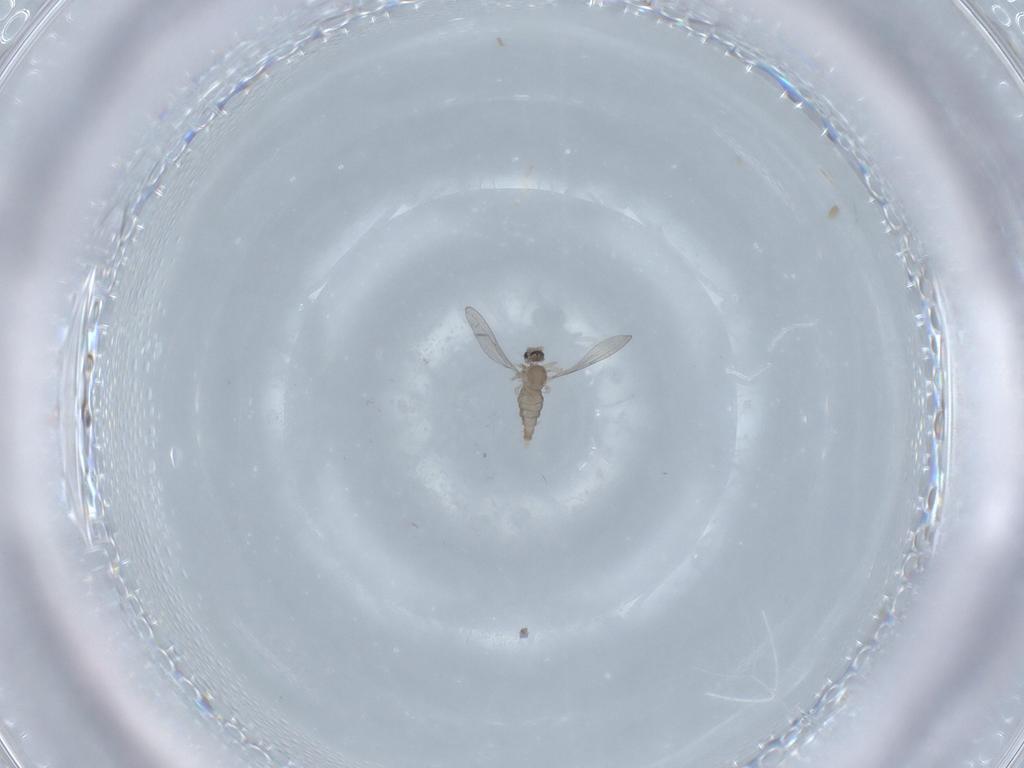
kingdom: Animalia
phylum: Arthropoda
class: Insecta
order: Diptera
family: Cecidomyiidae
